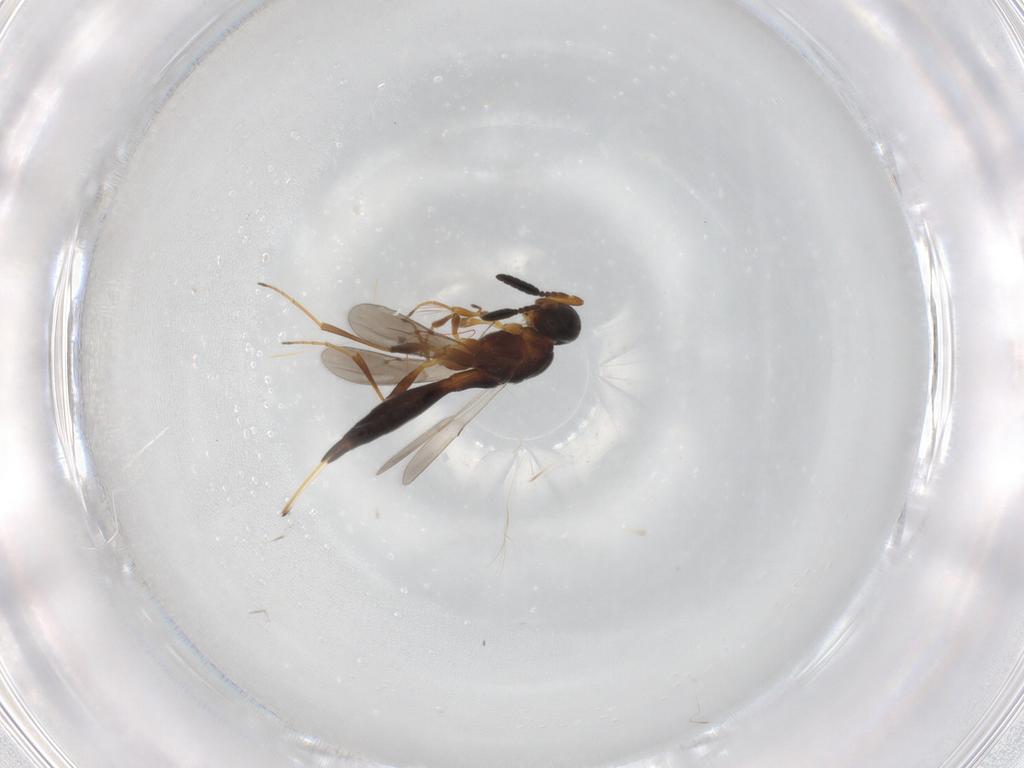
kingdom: Animalia
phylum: Arthropoda
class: Insecta
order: Hymenoptera
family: Scelionidae
